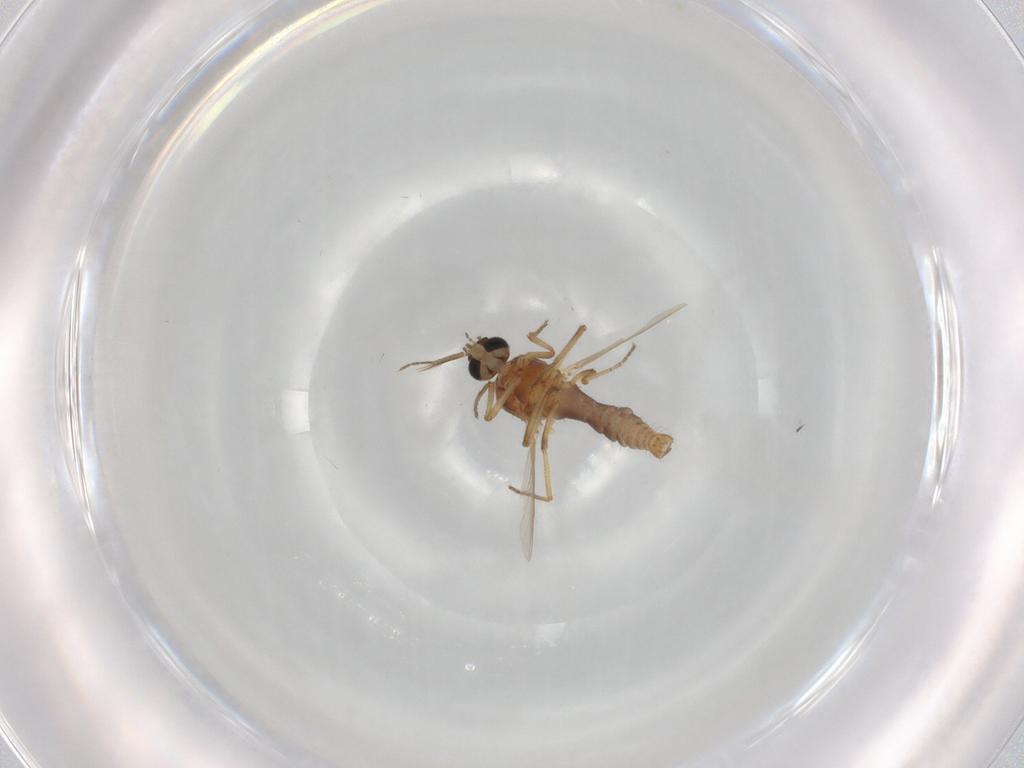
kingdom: Animalia
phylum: Arthropoda
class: Insecta
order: Diptera
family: Ceratopogonidae
